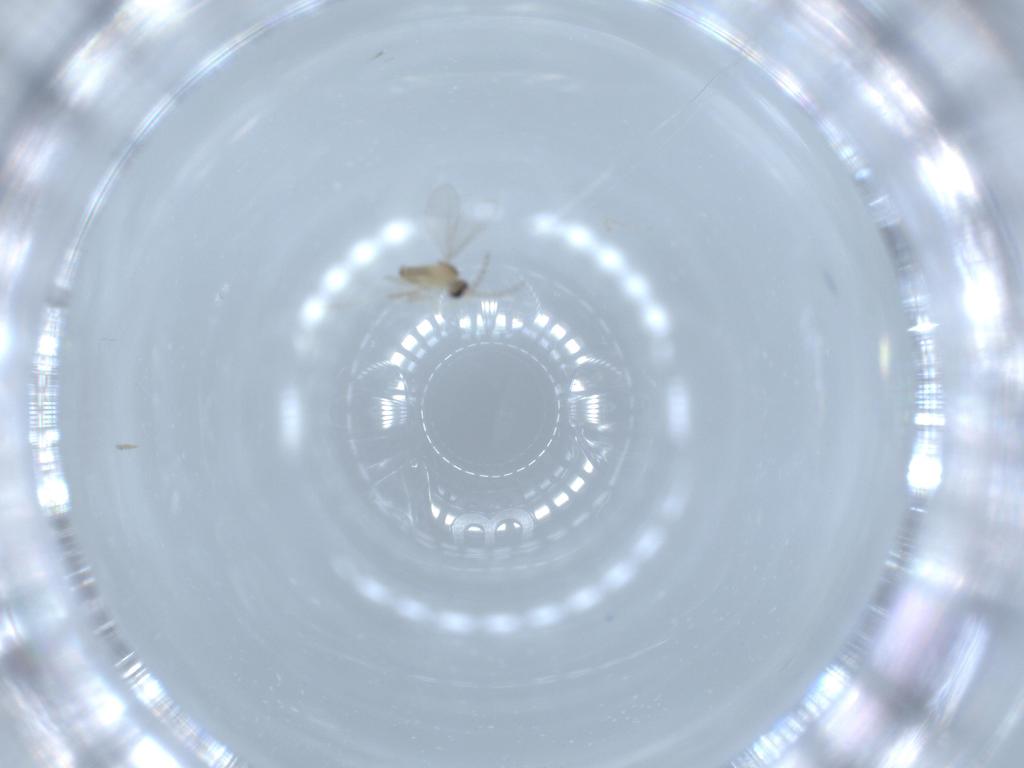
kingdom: Animalia
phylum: Arthropoda
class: Insecta
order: Diptera
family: Cecidomyiidae
